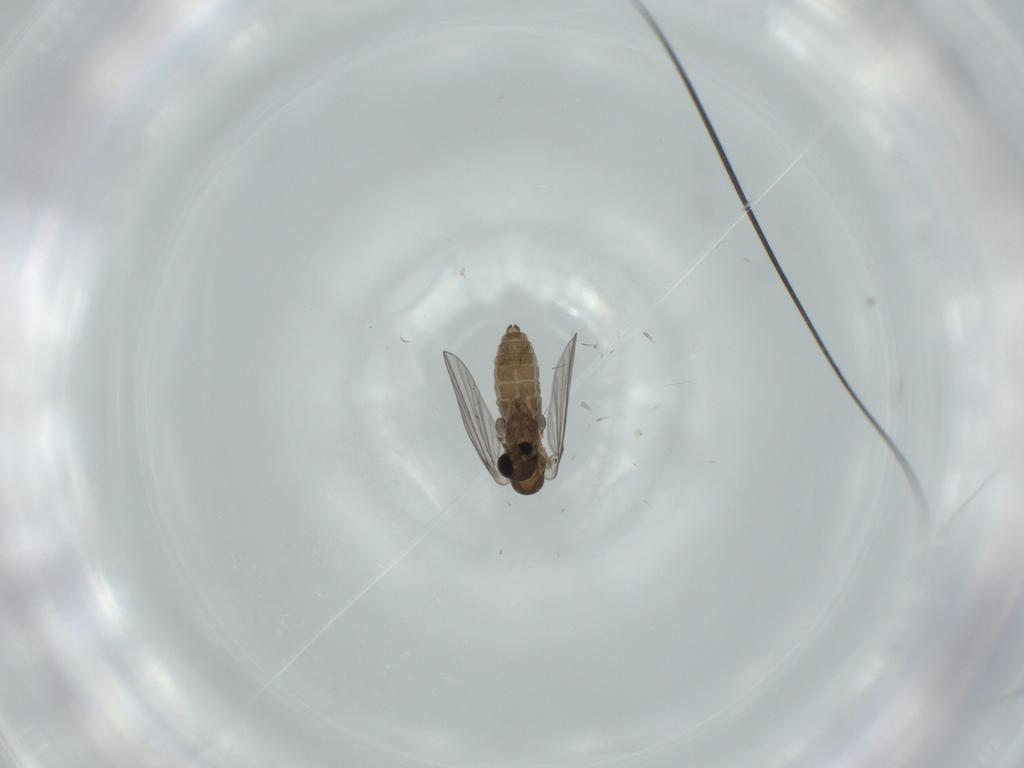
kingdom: Animalia
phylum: Arthropoda
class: Insecta
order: Diptera
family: Psychodidae
